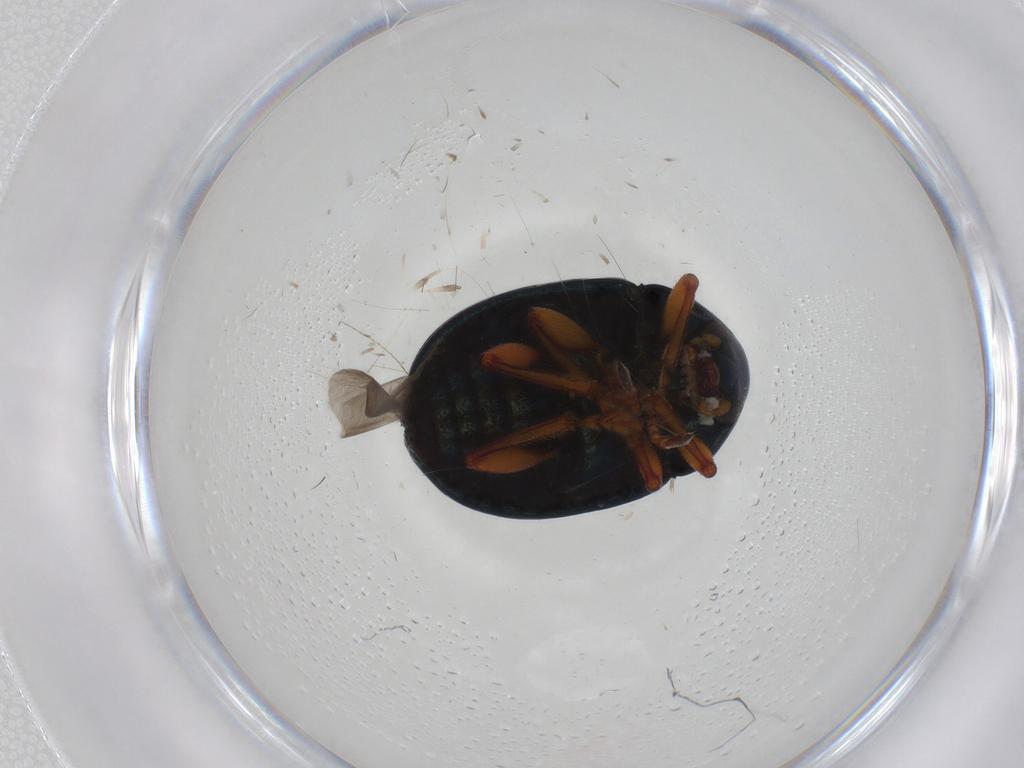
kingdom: Animalia
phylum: Arthropoda
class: Insecta
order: Coleoptera
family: Chrysomelidae
